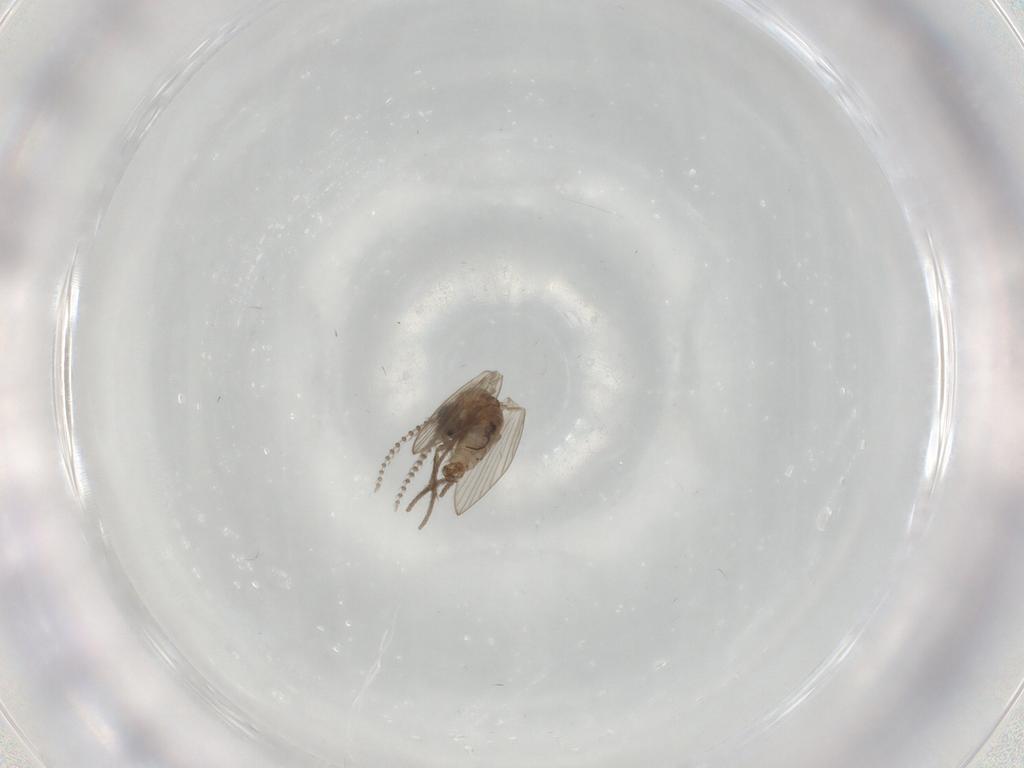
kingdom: Animalia
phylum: Arthropoda
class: Insecta
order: Diptera
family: Psychodidae
